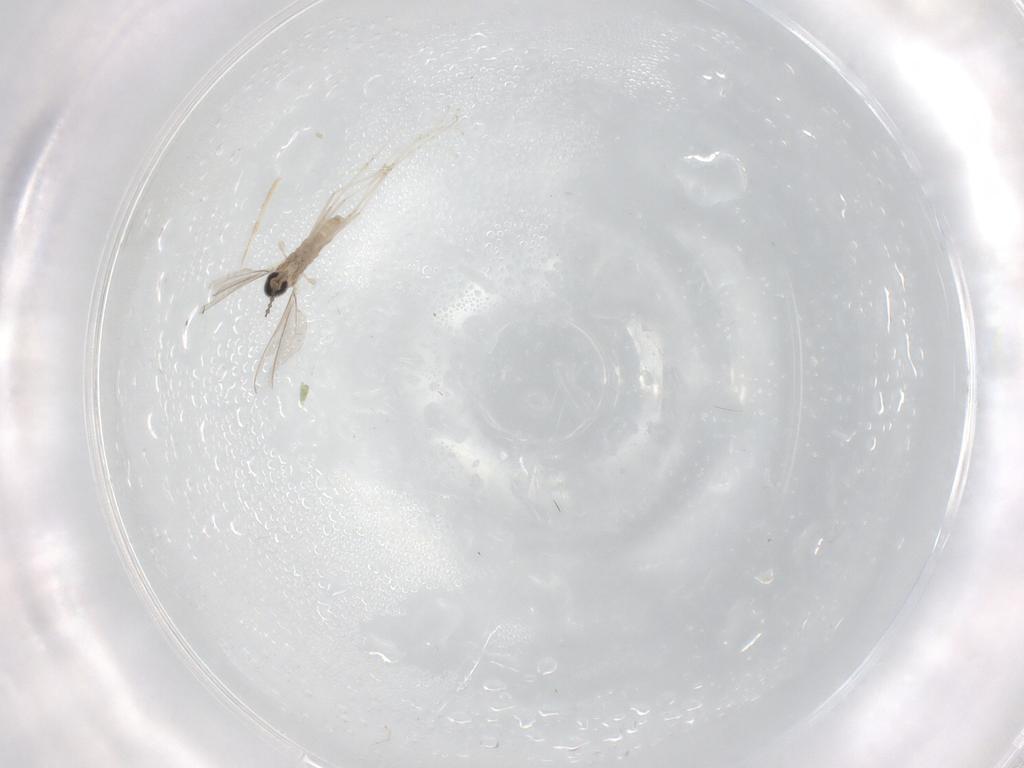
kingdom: Animalia
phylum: Arthropoda
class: Insecta
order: Diptera
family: Cecidomyiidae
